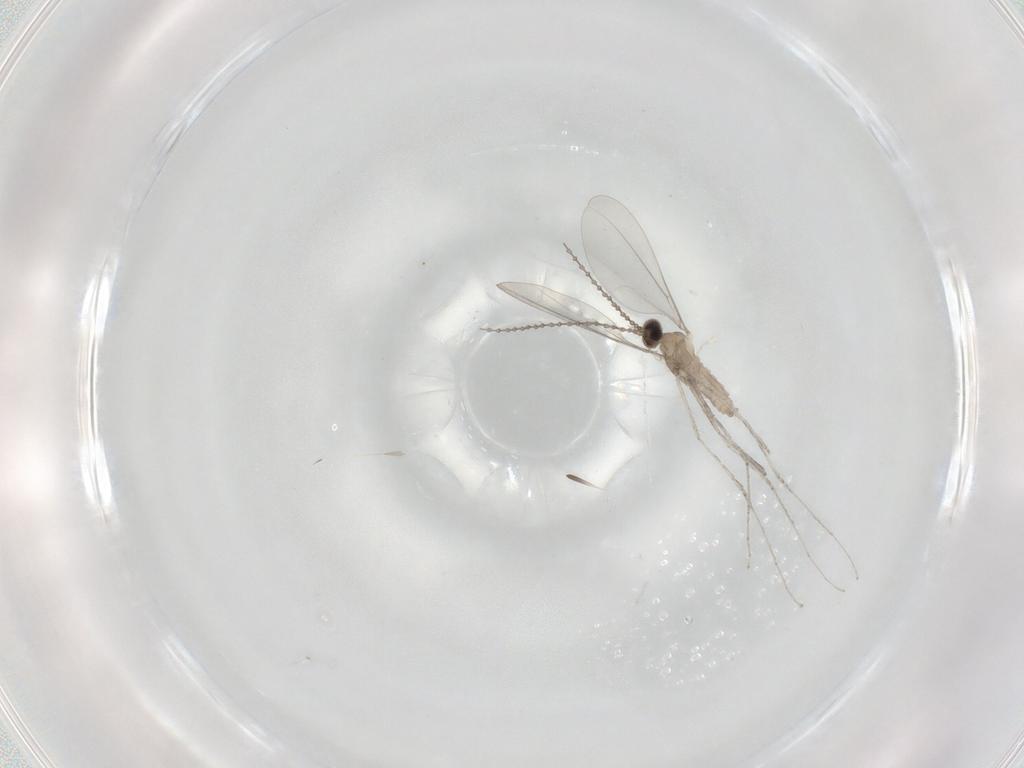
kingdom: Animalia
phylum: Arthropoda
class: Insecta
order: Diptera
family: Cecidomyiidae
